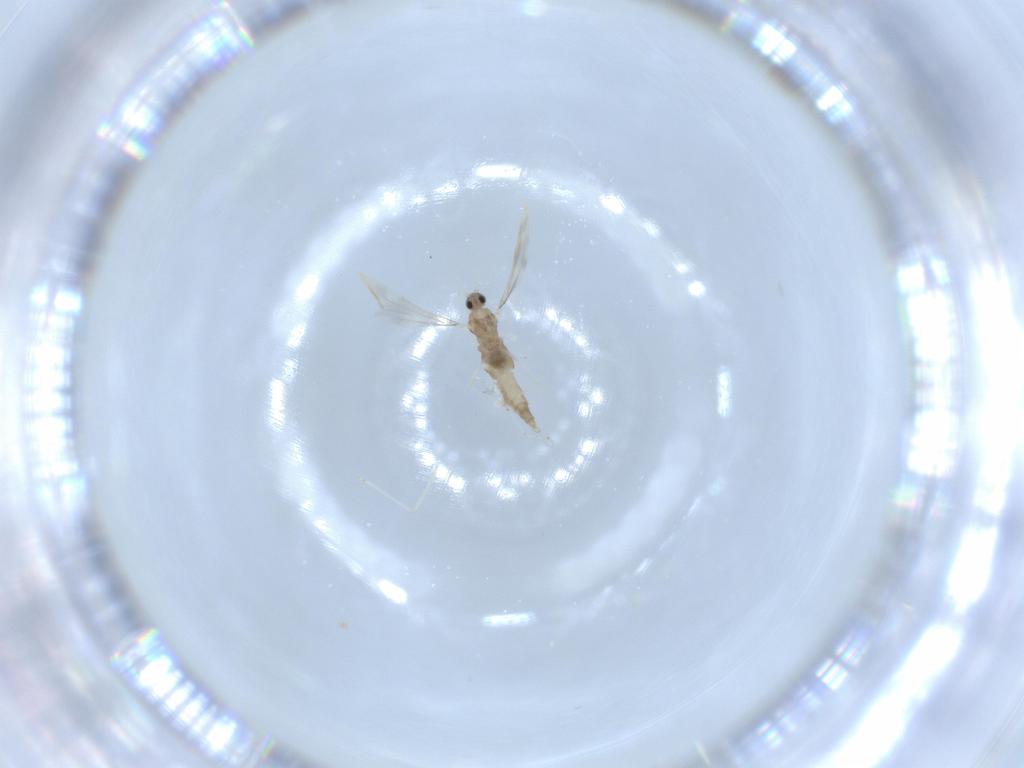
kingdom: Animalia
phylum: Arthropoda
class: Insecta
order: Diptera
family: Cecidomyiidae
